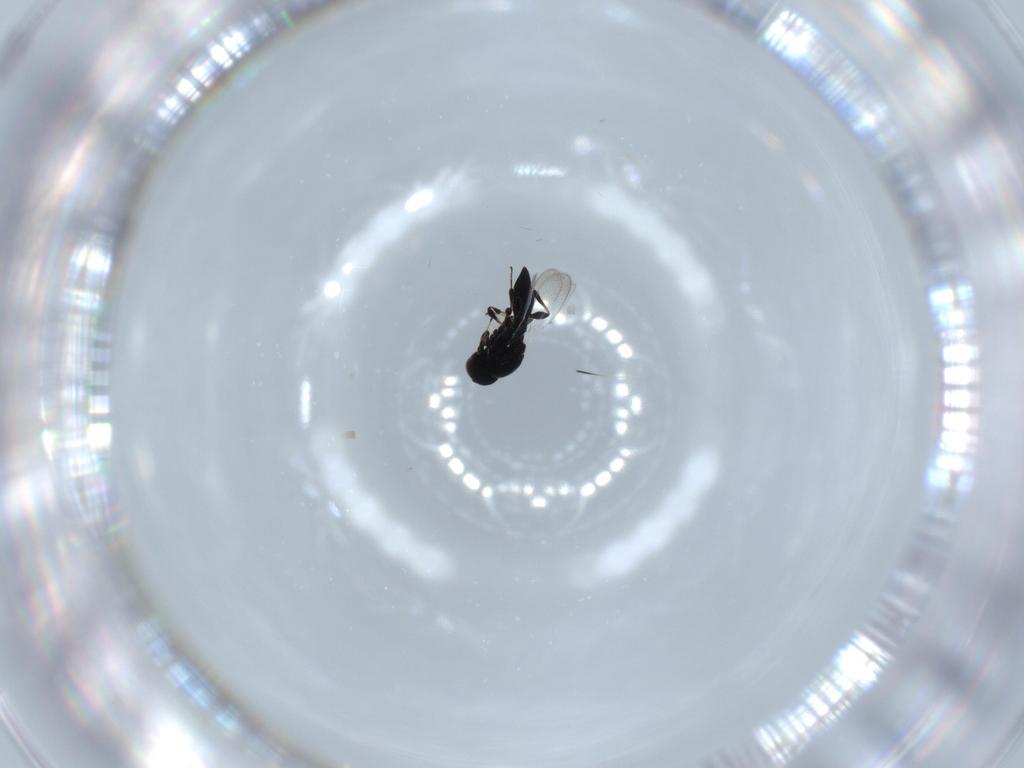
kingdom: Animalia
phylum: Arthropoda
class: Insecta
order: Hymenoptera
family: Platygastridae
